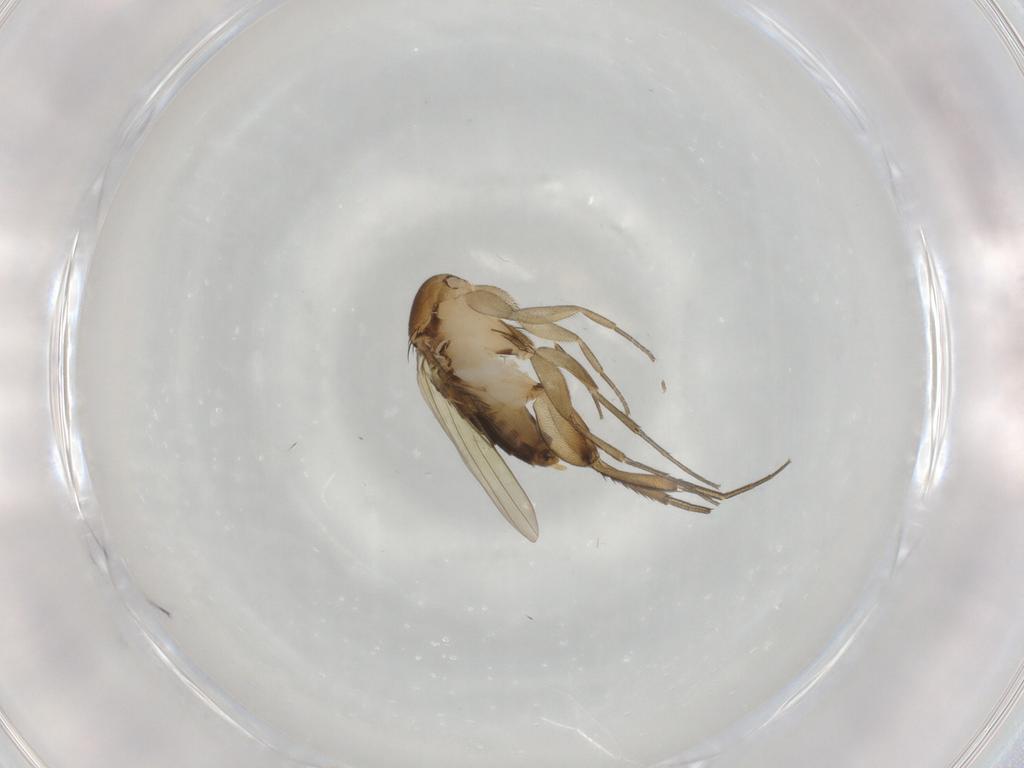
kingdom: Animalia
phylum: Arthropoda
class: Insecta
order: Diptera
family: Phoridae
